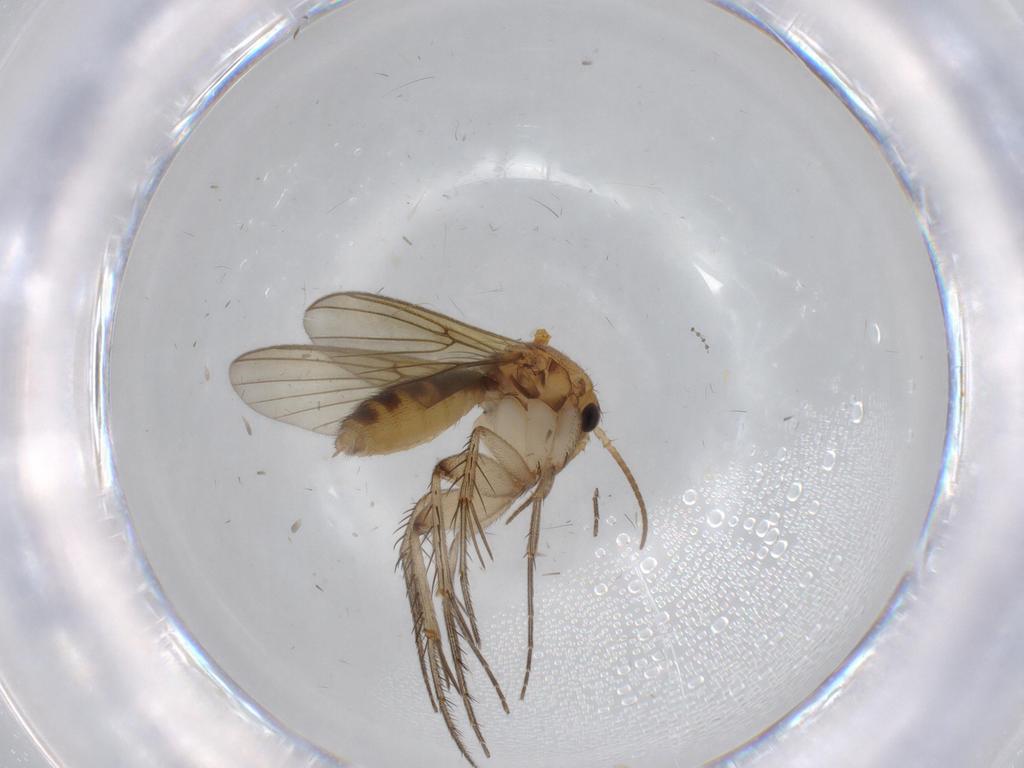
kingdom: Animalia
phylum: Arthropoda
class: Insecta
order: Diptera
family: Mycetophilidae
